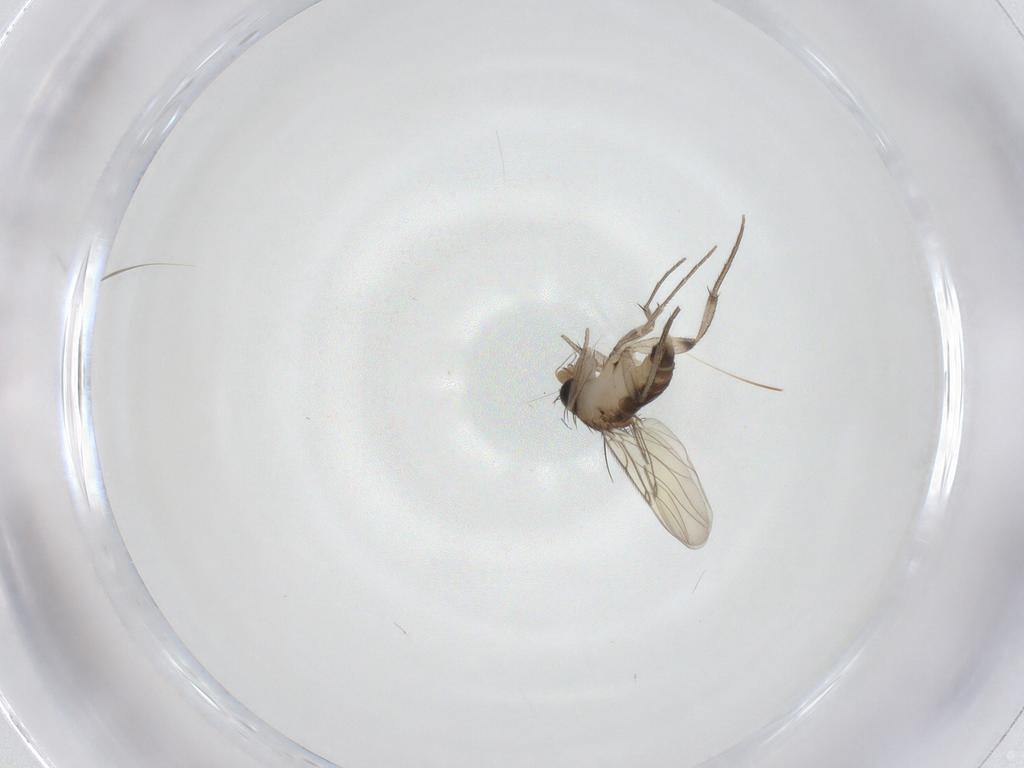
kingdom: Animalia
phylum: Arthropoda
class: Insecta
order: Diptera
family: Phoridae
